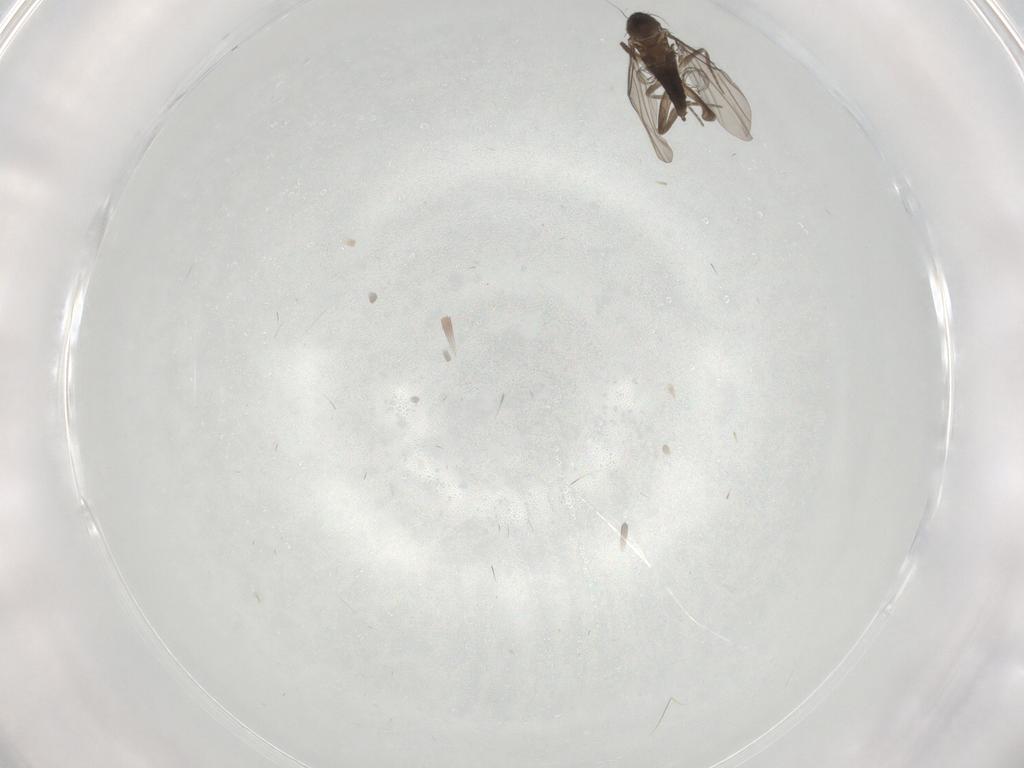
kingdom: Animalia
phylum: Arthropoda
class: Insecta
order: Diptera
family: Phoridae
